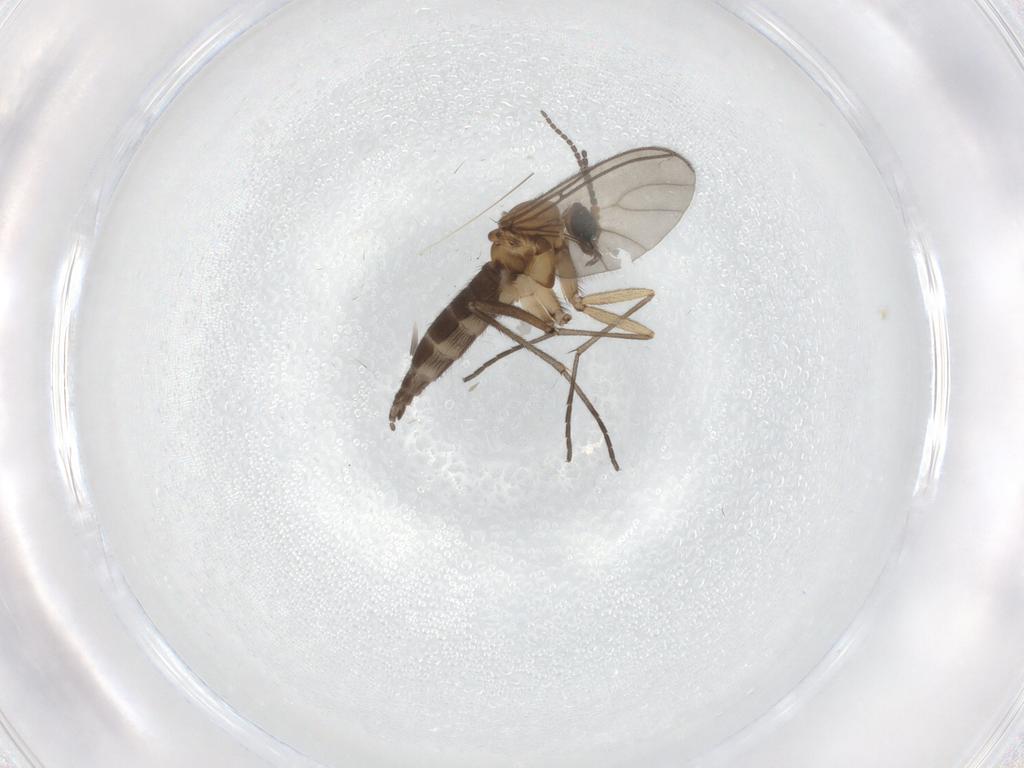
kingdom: Animalia
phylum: Arthropoda
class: Insecta
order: Diptera
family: Sciaridae
